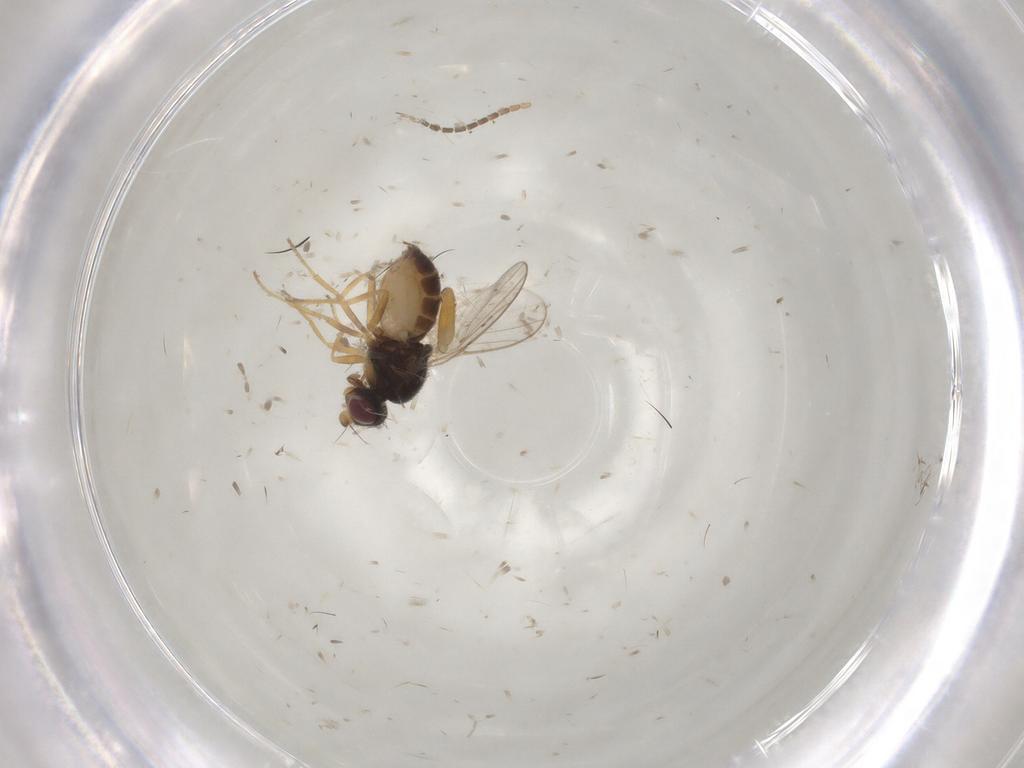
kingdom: Animalia
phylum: Arthropoda
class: Insecta
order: Diptera
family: Chloropidae
